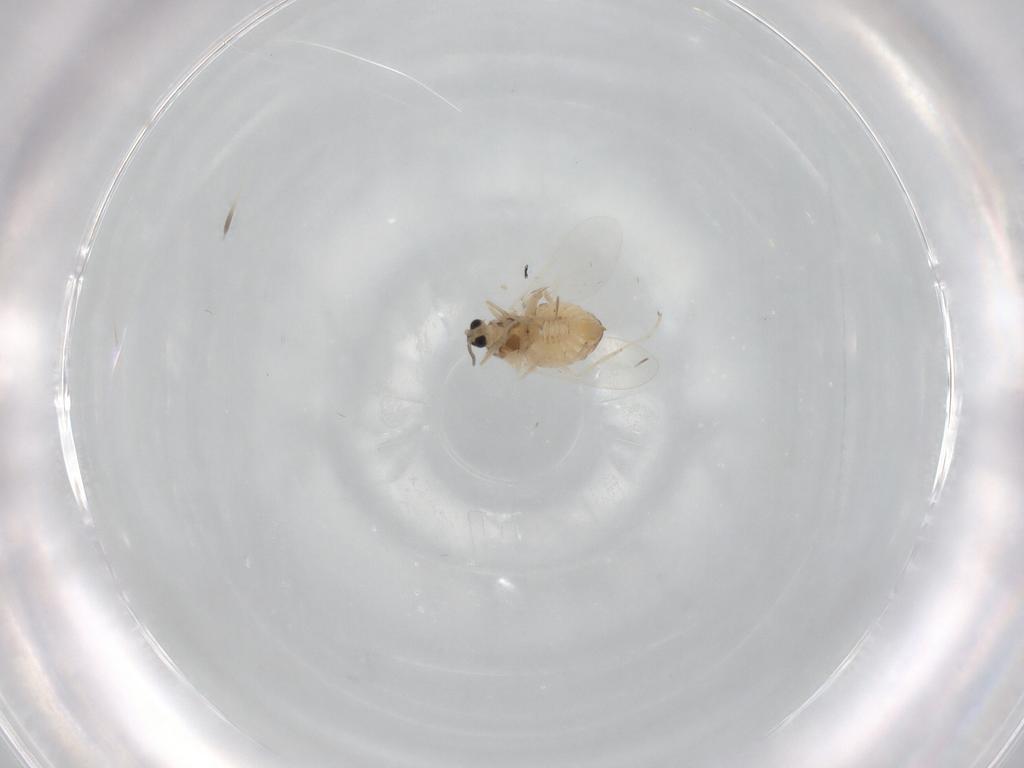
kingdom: Animalia
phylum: Arthropoda
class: Insecta
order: Diptera
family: Cecidomyiidae
